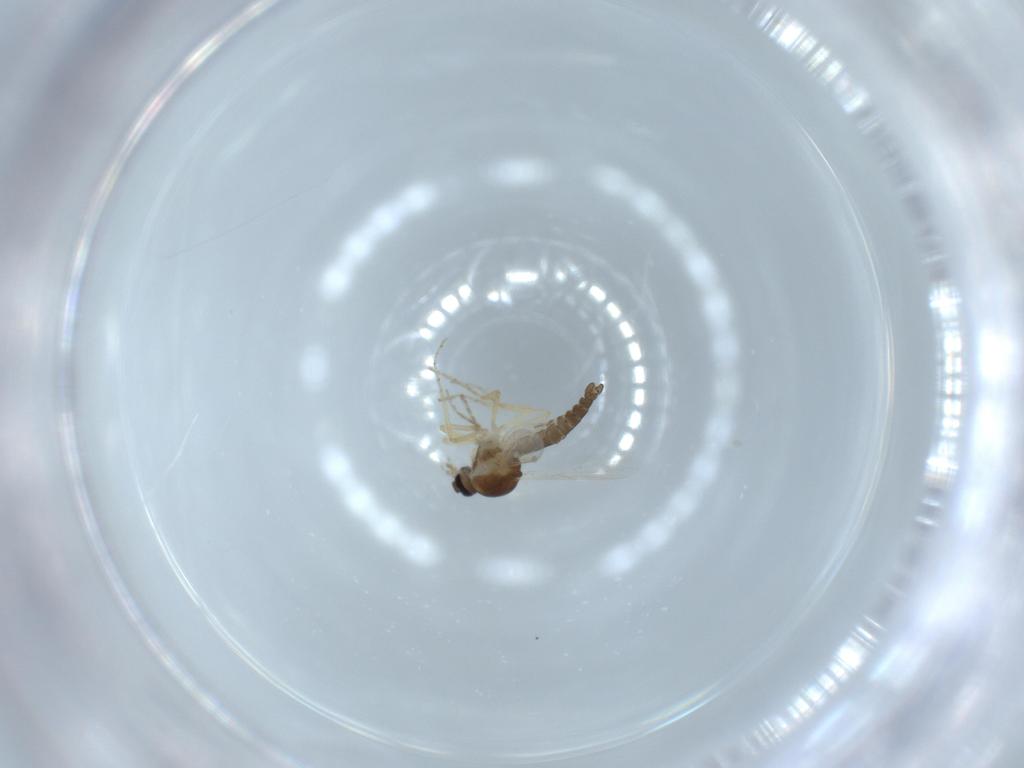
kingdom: Animalia
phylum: Arthropoda
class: Insecta
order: Diptera
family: Ceratopogonidae
